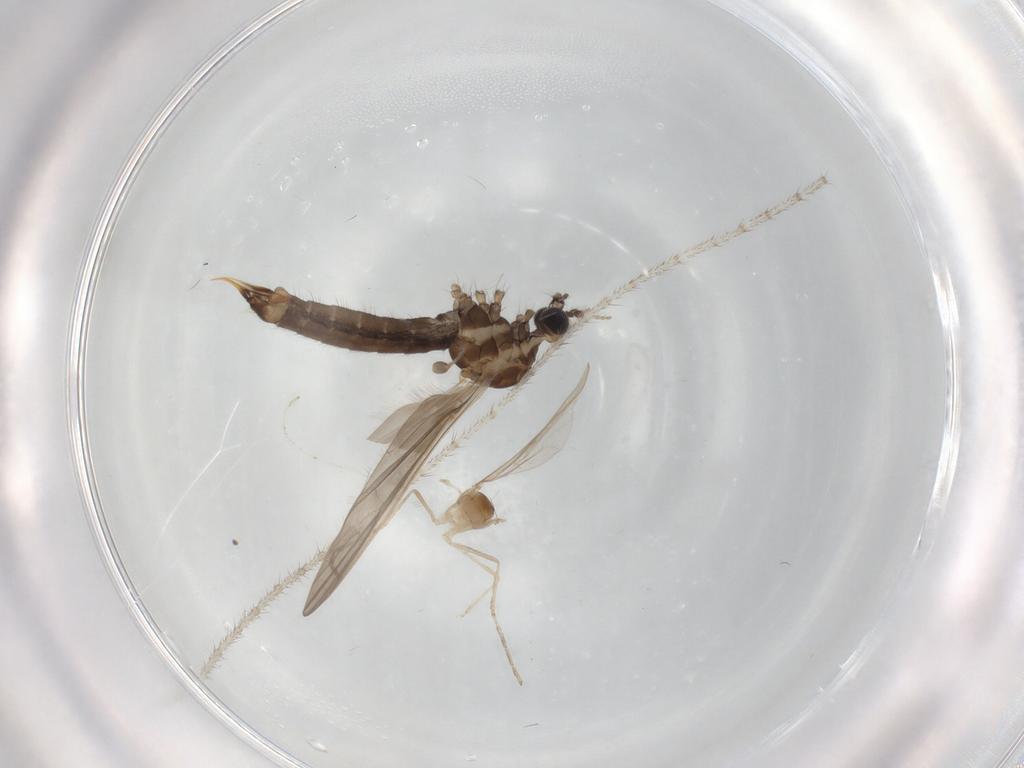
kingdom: Animalia
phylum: Arthropoda
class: Insecta
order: Diptera
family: Limoniidae
